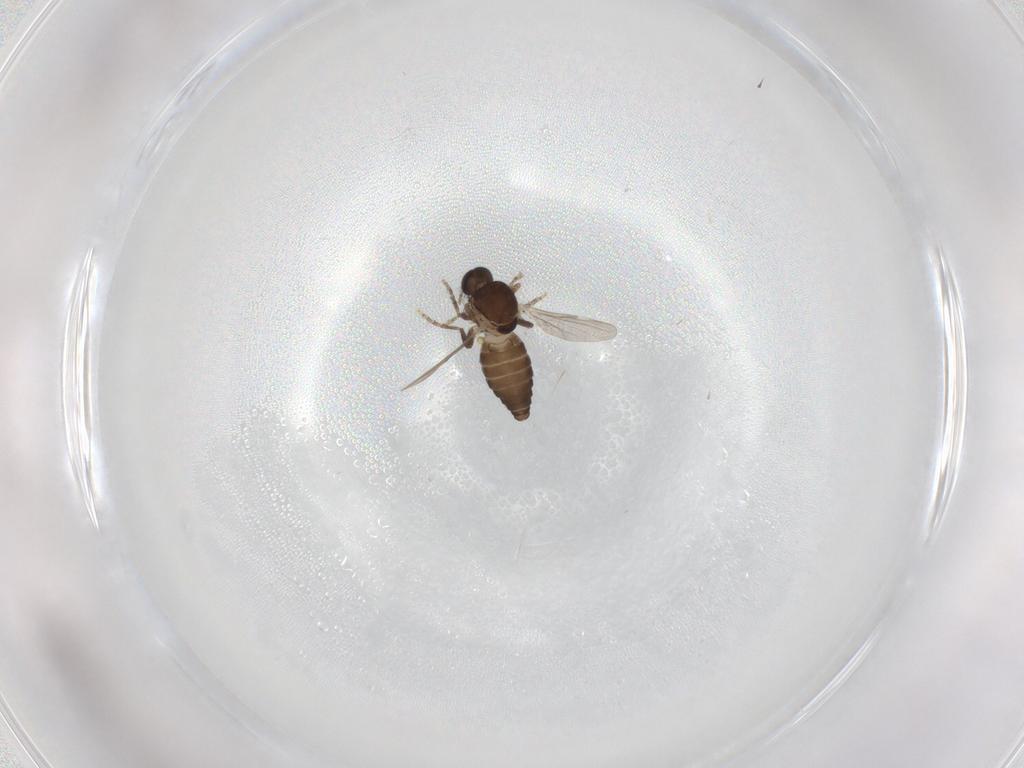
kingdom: Animalia
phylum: Arthropoda
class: Insecta
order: Diptera
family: Ceratopogonidae
